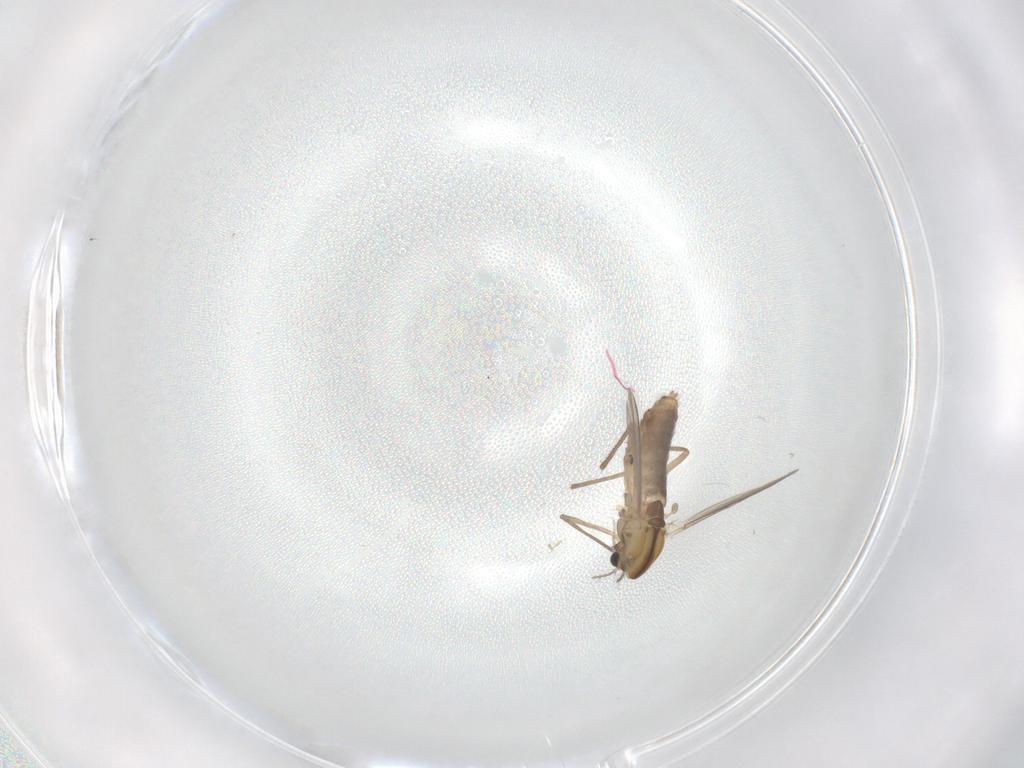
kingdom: Animalia
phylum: Arthropoda
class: Insecta
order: Diptera
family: Chironomidae
